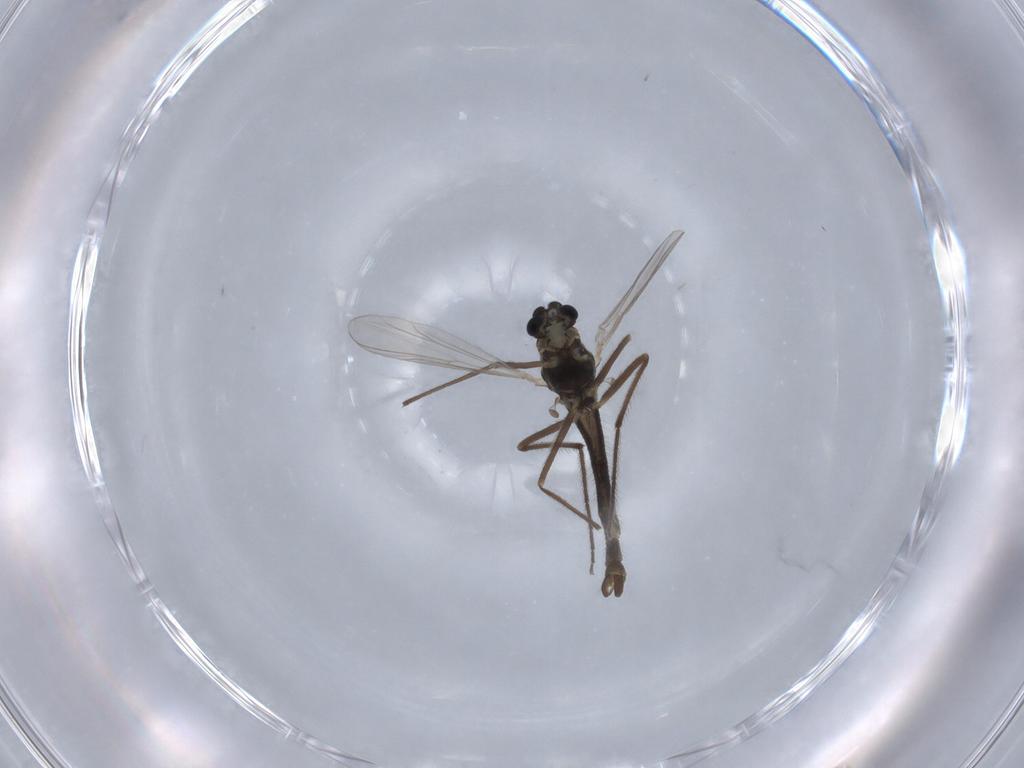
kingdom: Animalia
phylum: Arthropoda
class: Insecta
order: Diptera
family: Chironomidae
